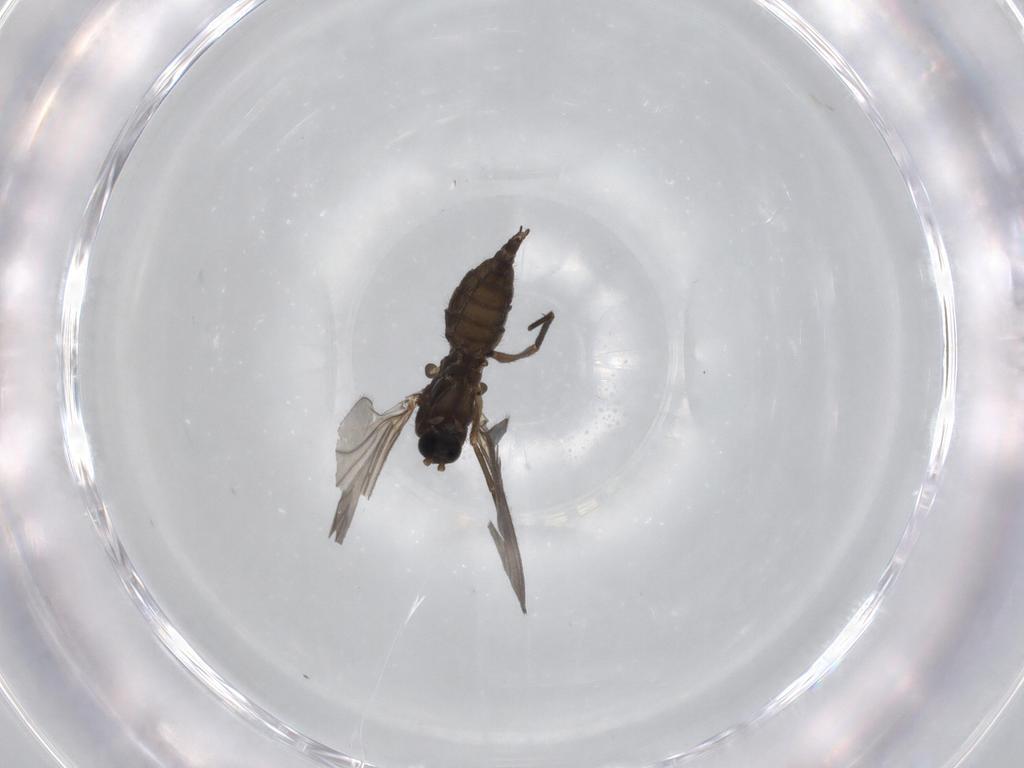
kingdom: Animalia
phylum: Arthropoda
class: Insecta
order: Diptera
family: Sciaridae
